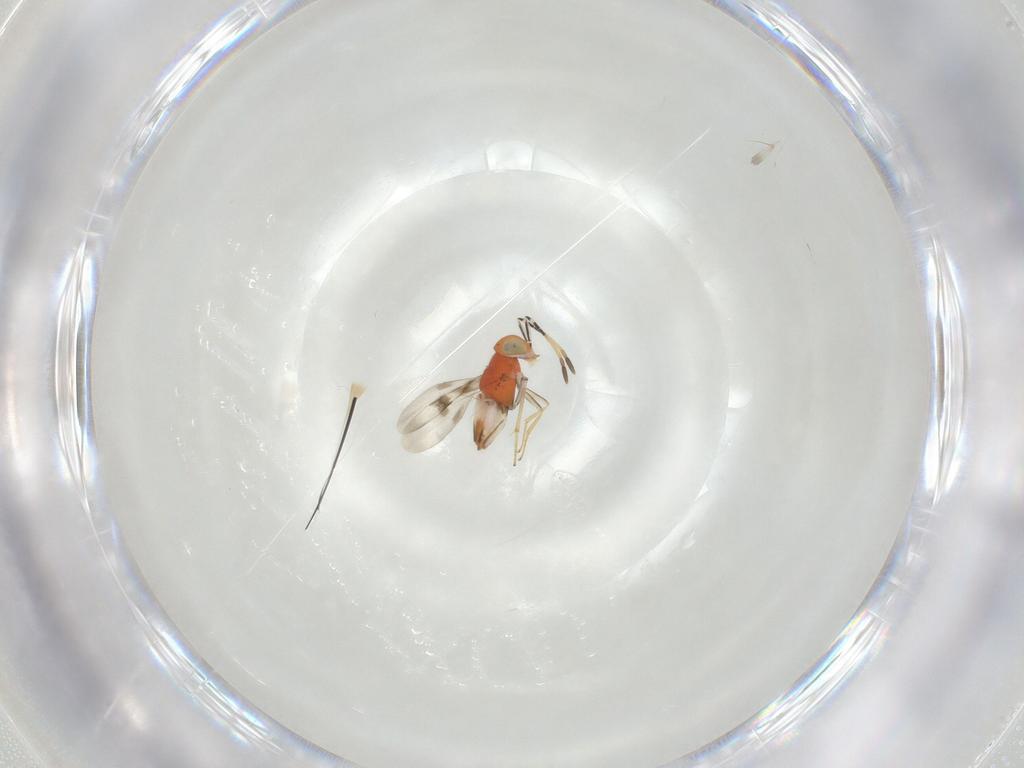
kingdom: Animalia
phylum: Arthropoda
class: Insecta
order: Hymenoptera
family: Encyrtidae
